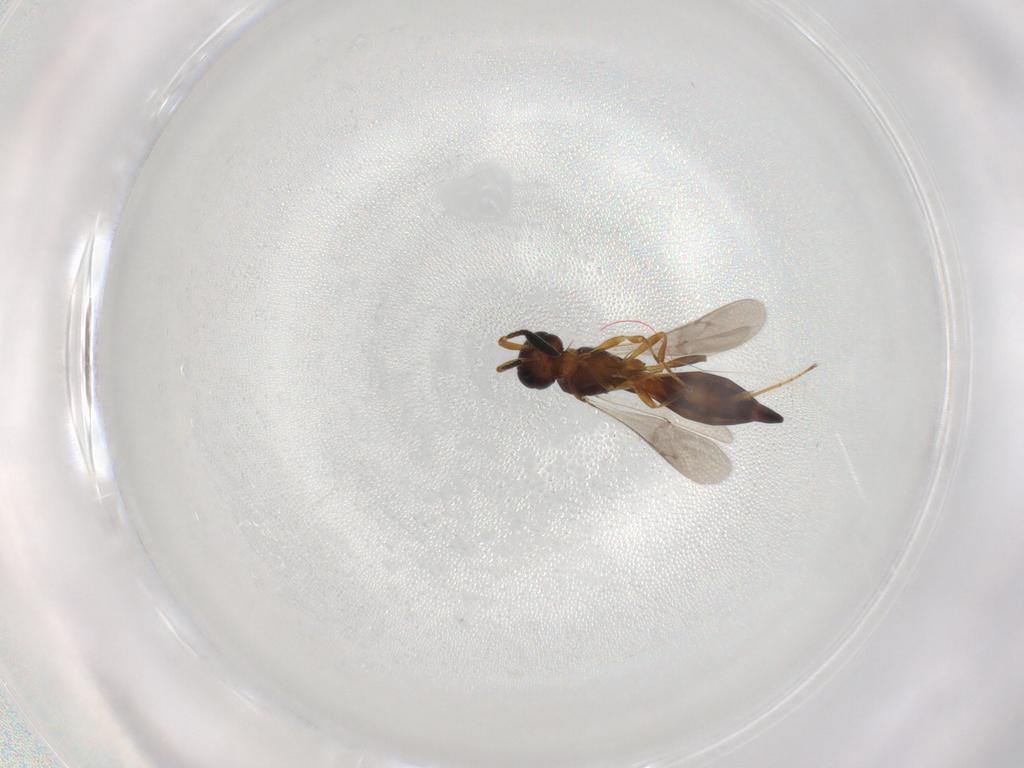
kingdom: Animalia
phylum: Arthropoda
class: Insecta
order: Hymenoptera
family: Scelionidae
